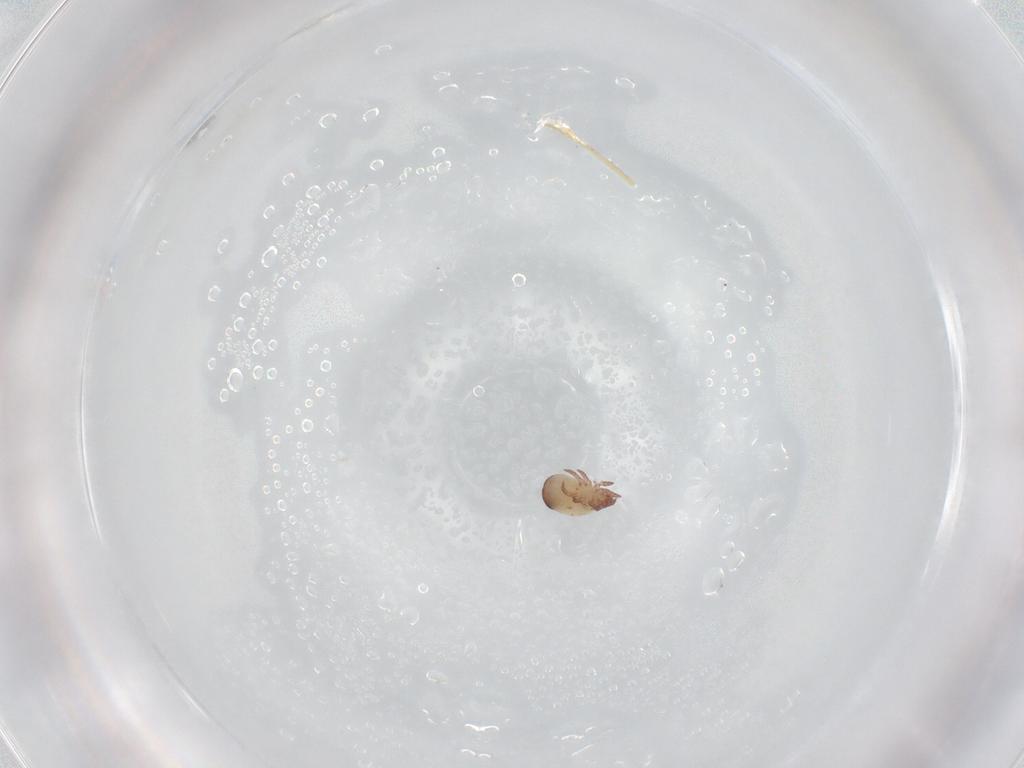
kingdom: Animalia
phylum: Arthropoda
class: Arachnida
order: Sarcoptiformes
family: Trhypochthoniidae
